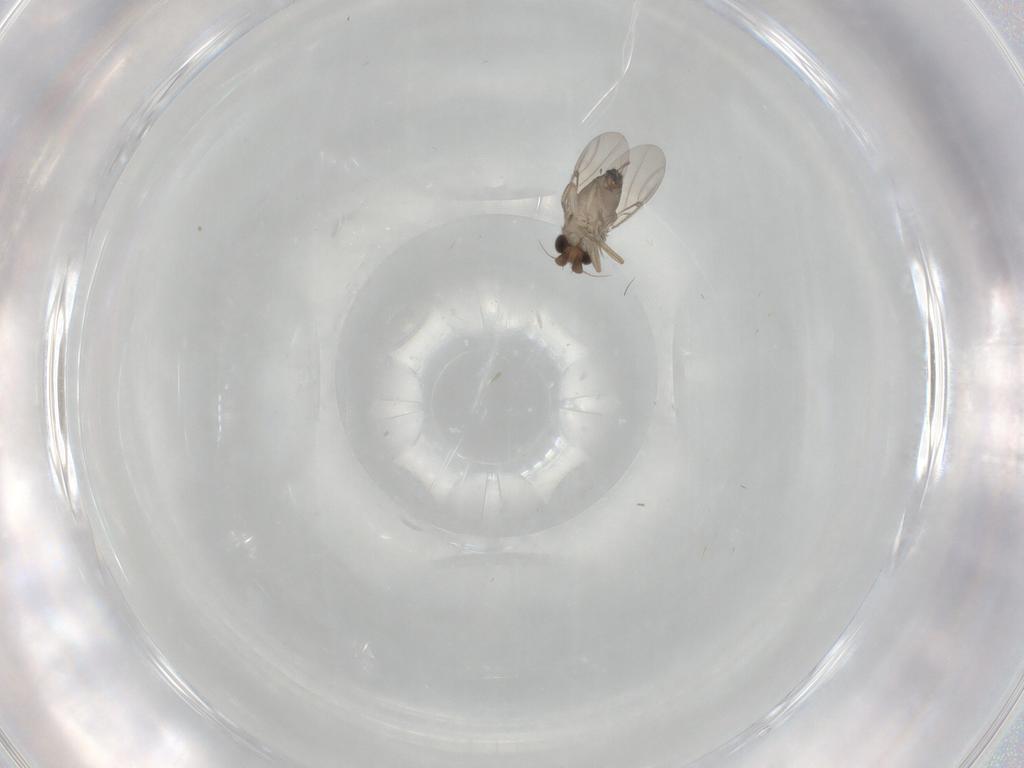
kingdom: Animalia
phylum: Arthropoda
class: Insecta
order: Diptera
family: Phoridae
